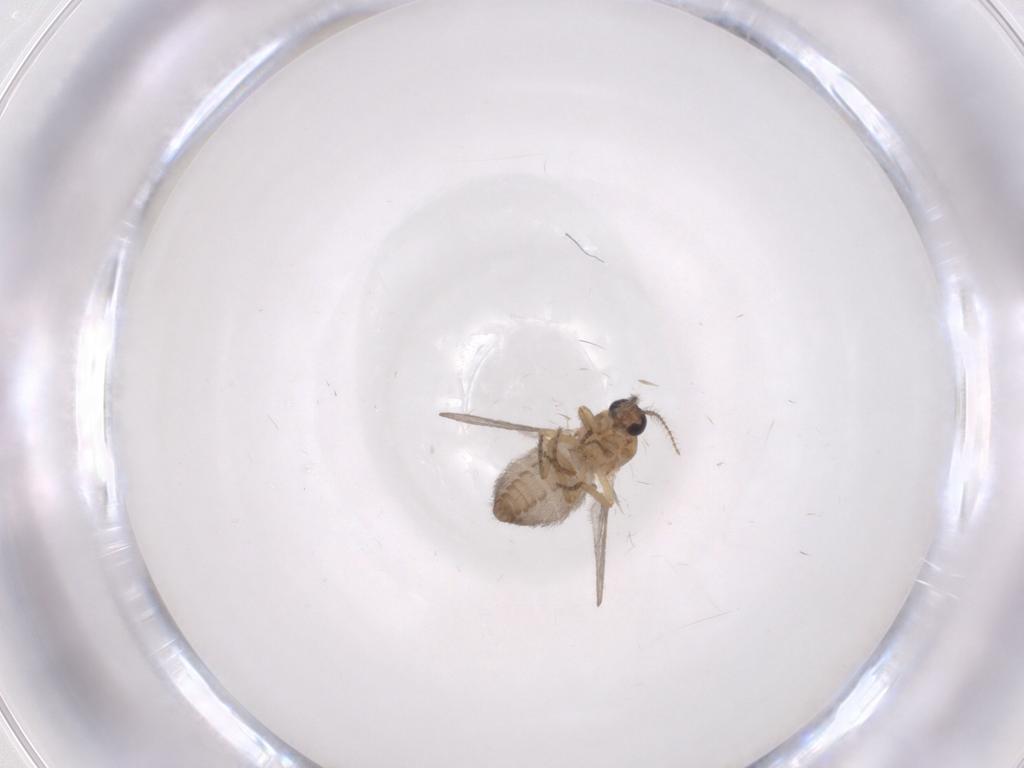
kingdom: Animalia
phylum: Arthropoda
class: Insecta
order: Diptera
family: Ceratopogonidae
